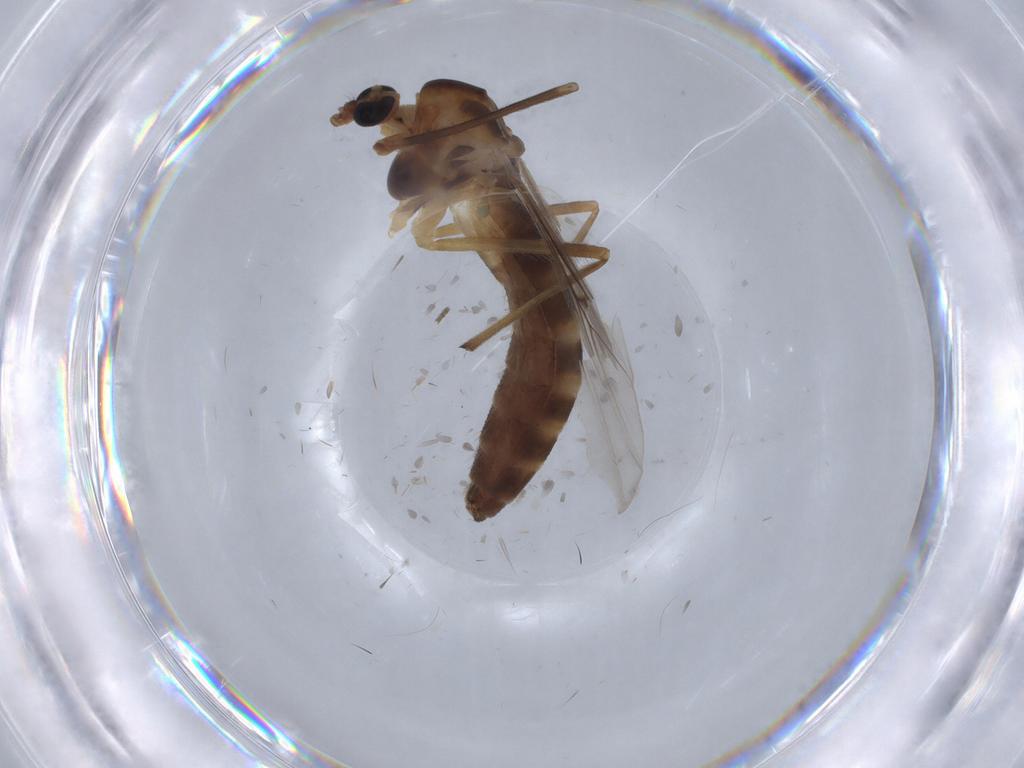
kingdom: Animalia
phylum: Arthropoda
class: Insecta
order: Diptera
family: Chironomidae
